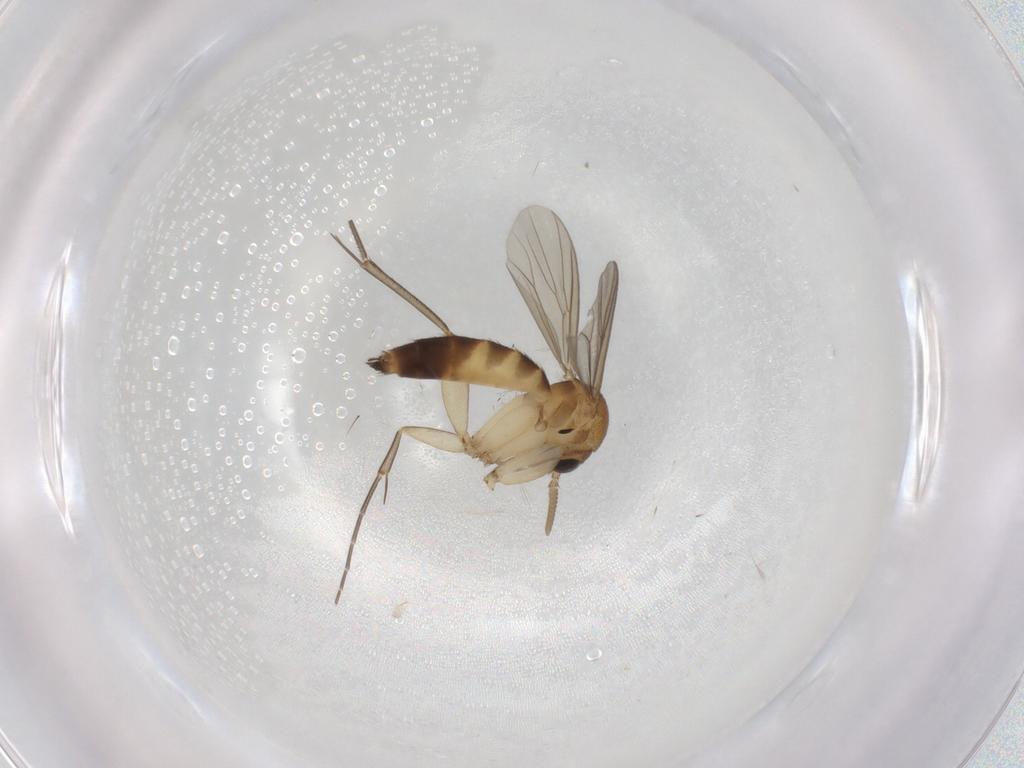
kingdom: Animalia
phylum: Arthropoda
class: Insecta
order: Diptera
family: Mycetophilidae
